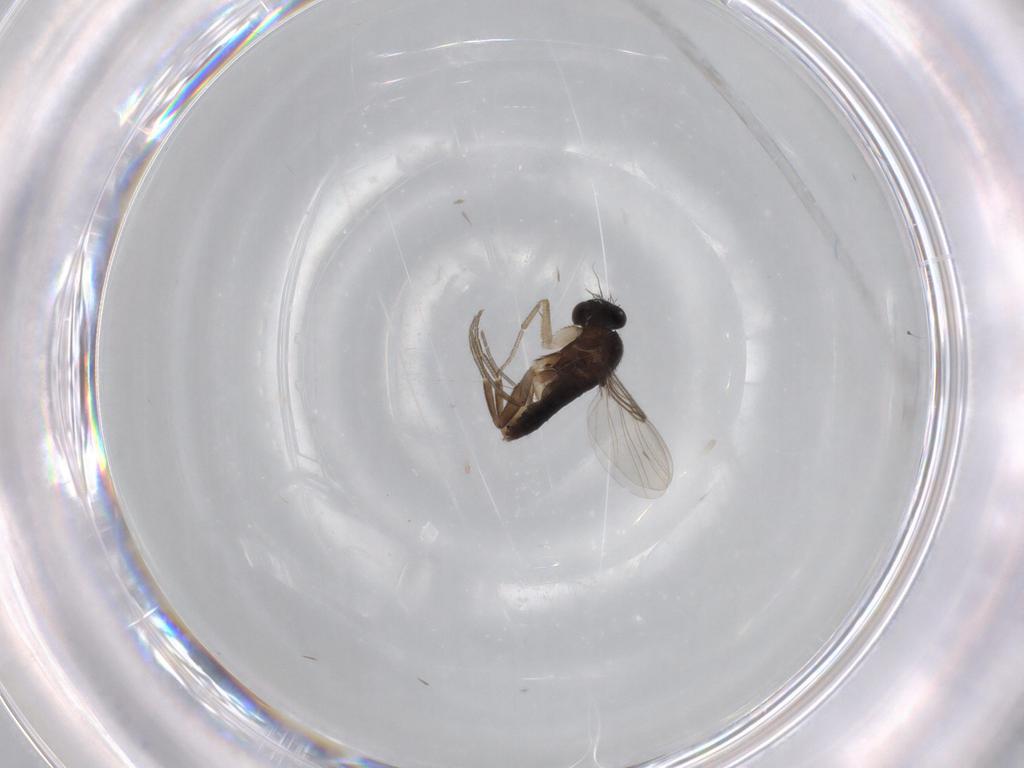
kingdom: Animalia
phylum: Arthropoda
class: Insecta
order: Diptera
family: Phoridae
